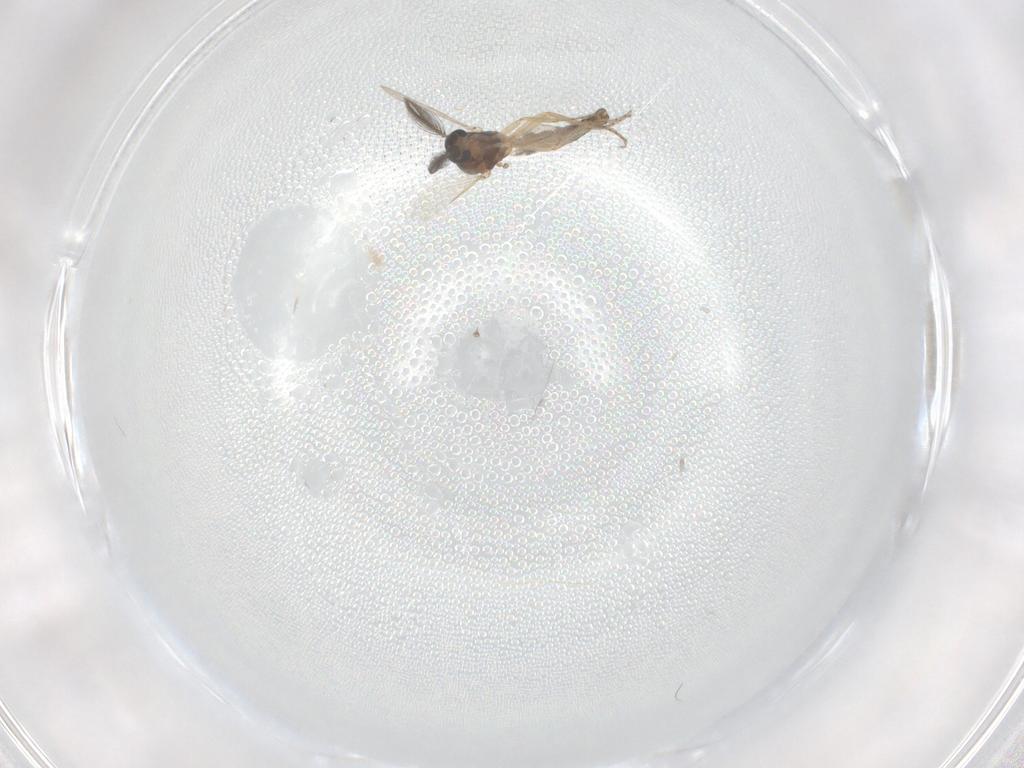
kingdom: Animalia
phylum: Arthropoda
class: Insecta
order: Diptera
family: Ceratopogonidae
